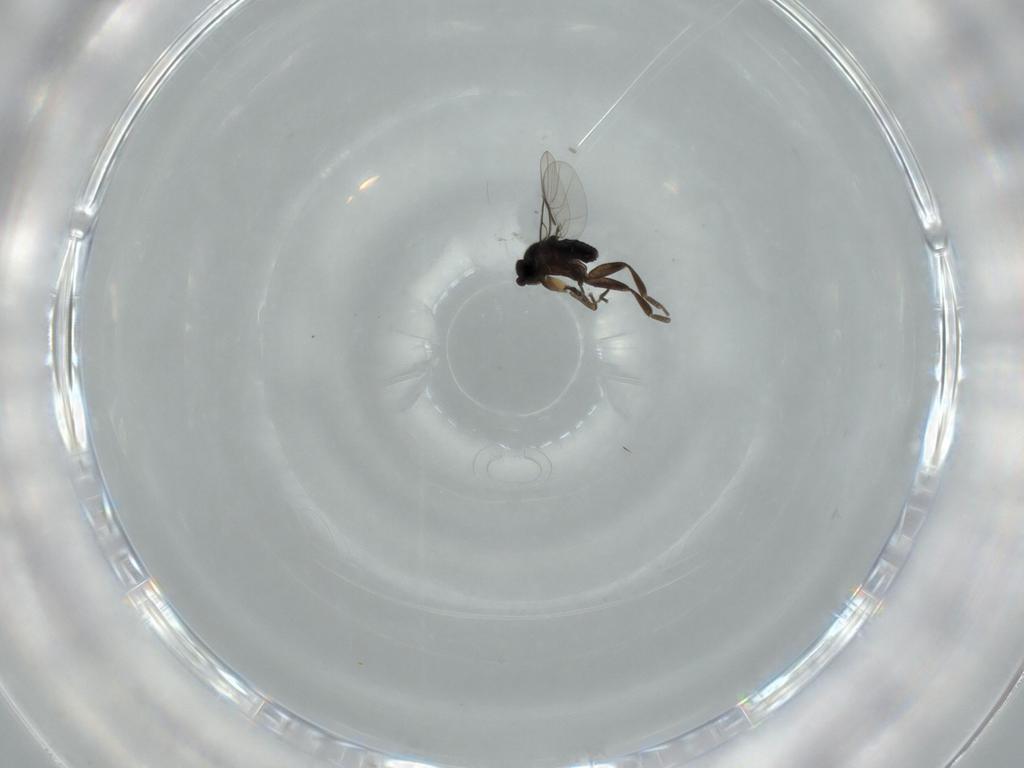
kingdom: Animalia
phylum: Arthropoda
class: Insecta
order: Diptera
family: Phoridae
